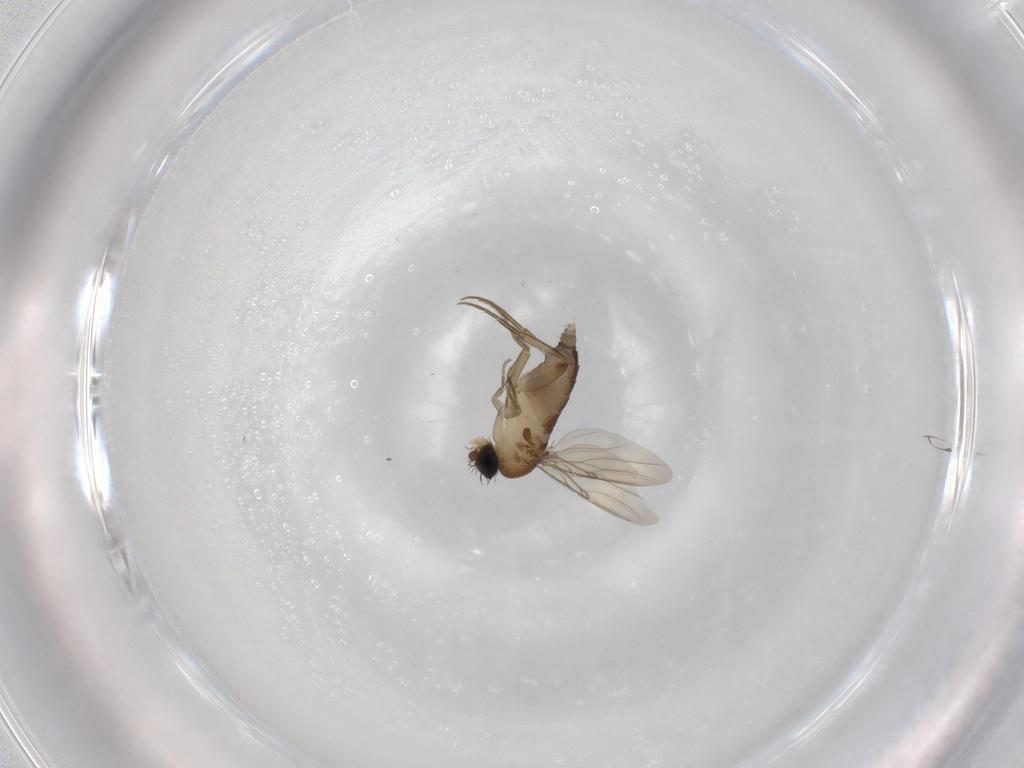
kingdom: Animalia
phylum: Arthropoda
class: Insecta
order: Diptera
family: Phoridae
